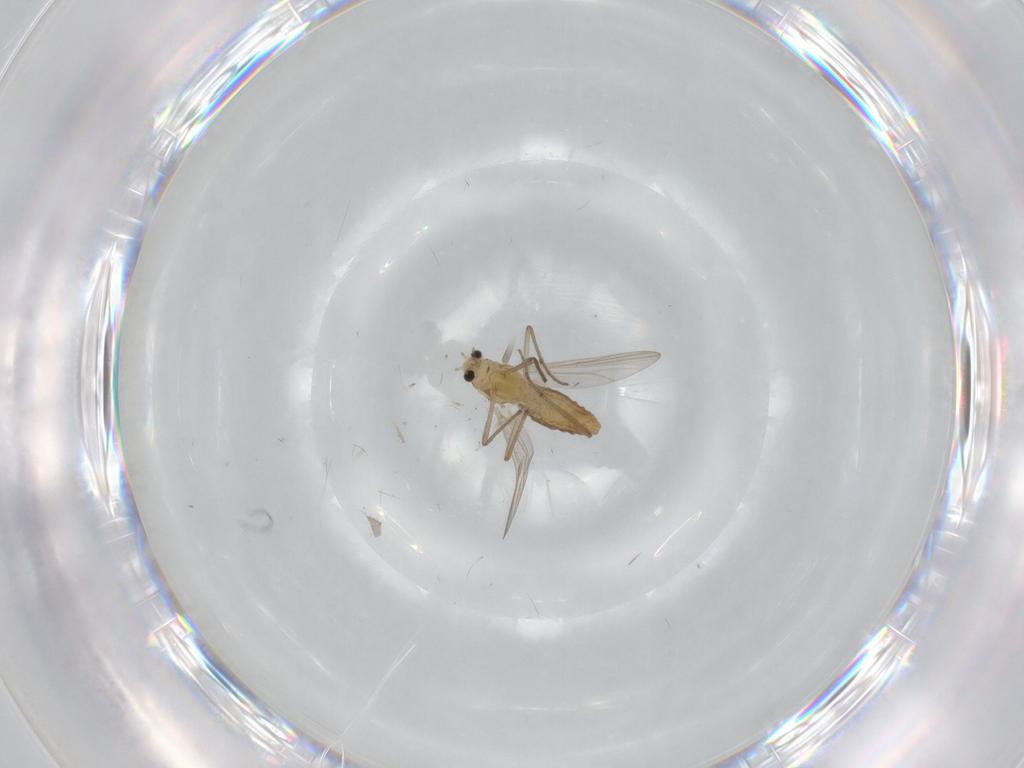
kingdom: Animalia
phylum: Arthropoda
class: Insecta
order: Diptera
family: Chironomidae
